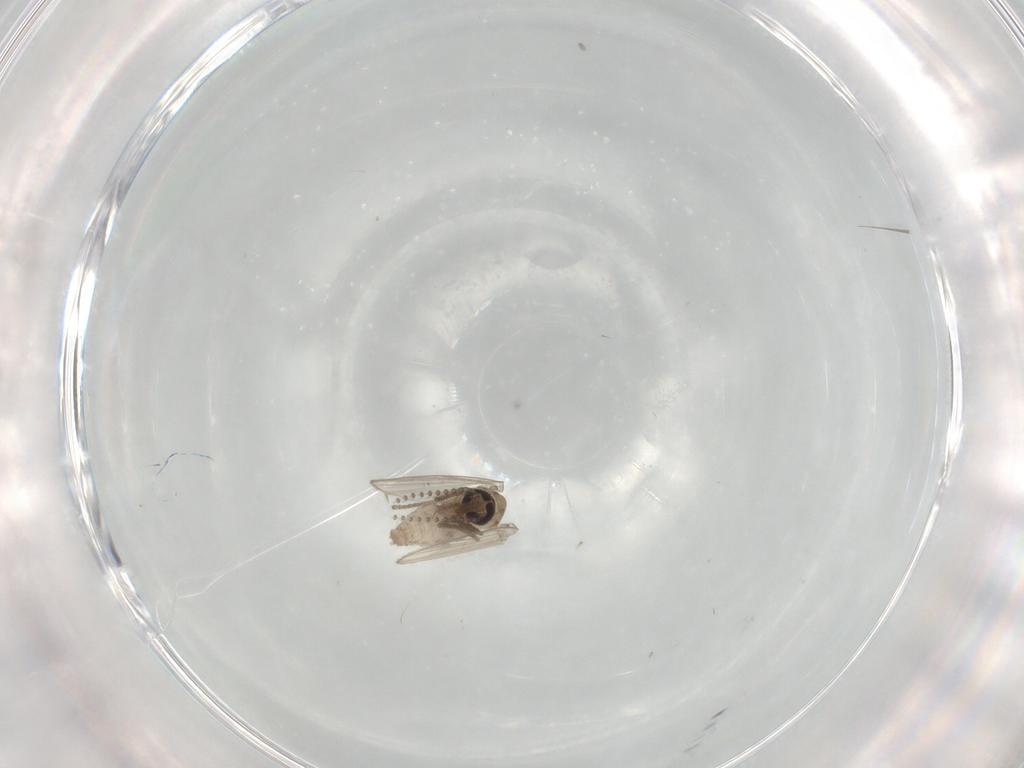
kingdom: Animalia
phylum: Arthropoda
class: Insecta
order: Diptera
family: Psychodidae
